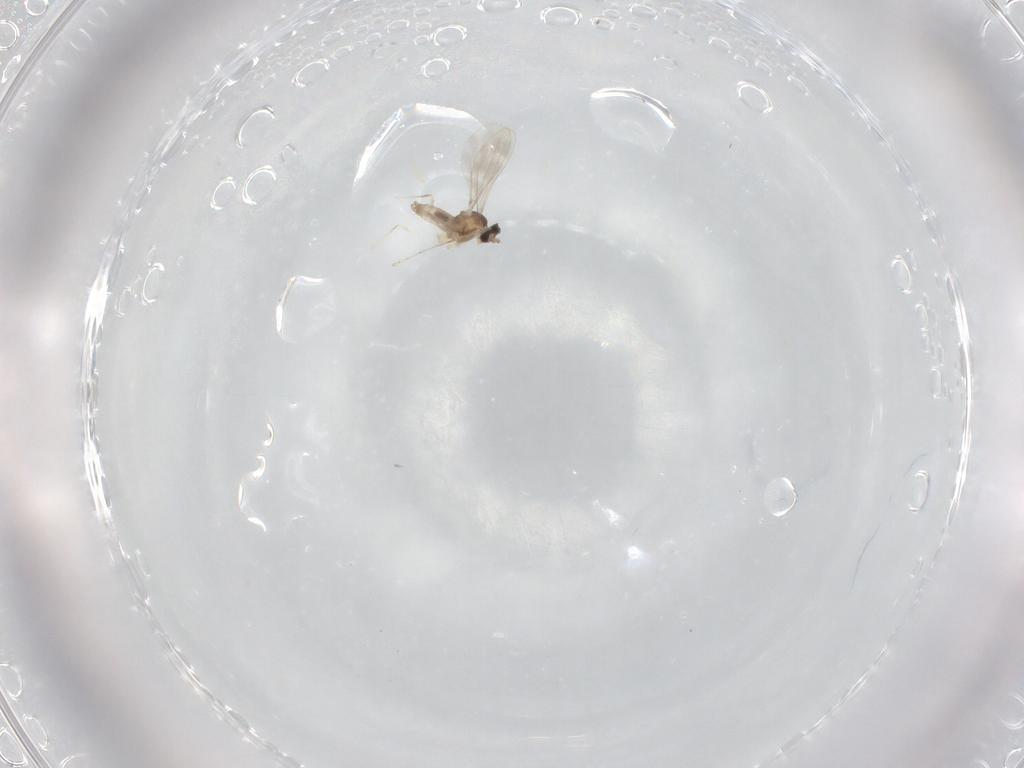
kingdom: Animalia
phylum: Arthropoda
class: Insecta
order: Diptera
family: Cecidomyiidae
